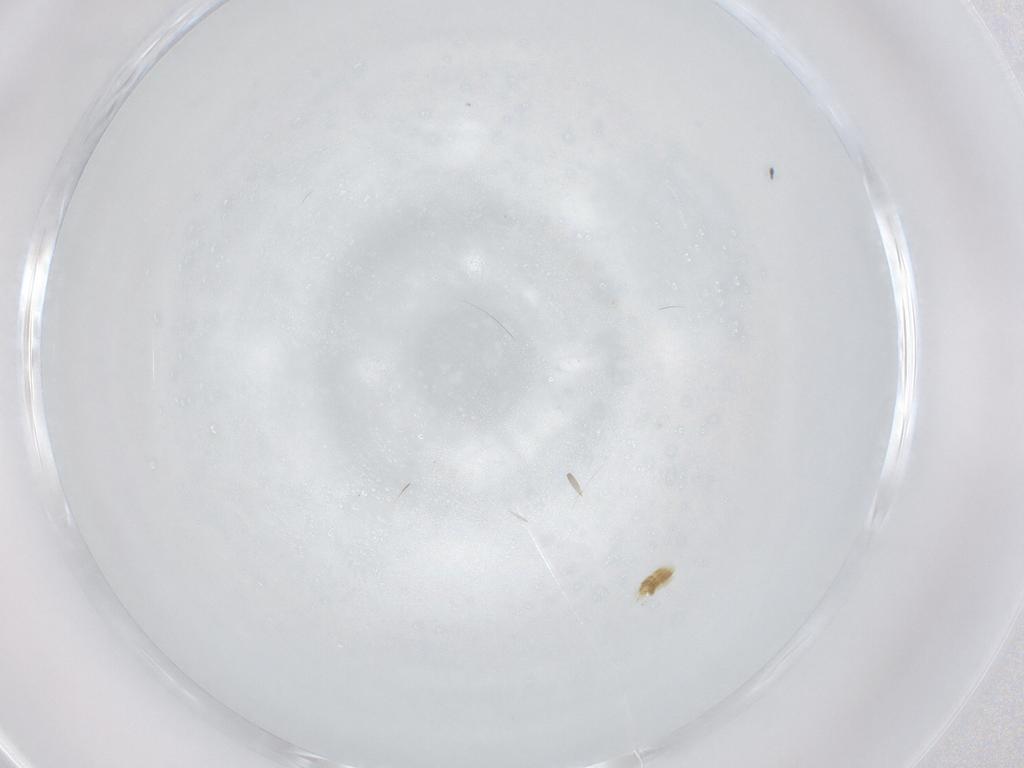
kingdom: Animalia
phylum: Arthropoda
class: Arachnida
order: Trombidiformes
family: Eupodidae
